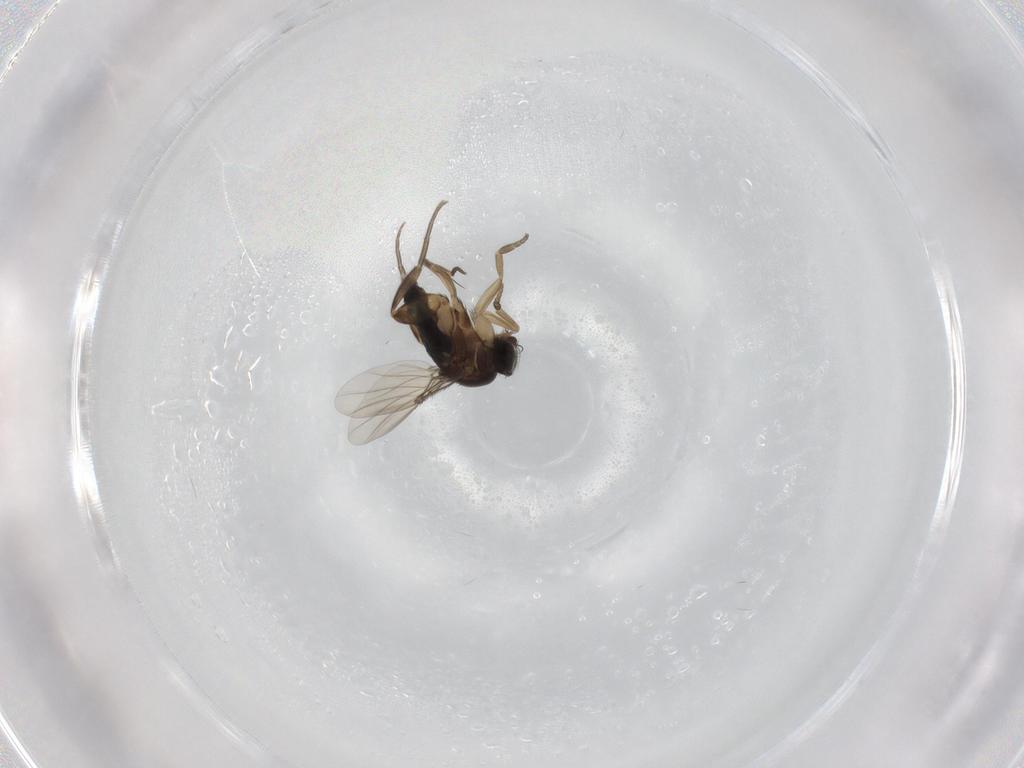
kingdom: Animalia
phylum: Arthropoda
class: Insecta
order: Diptera
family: Phoridae
